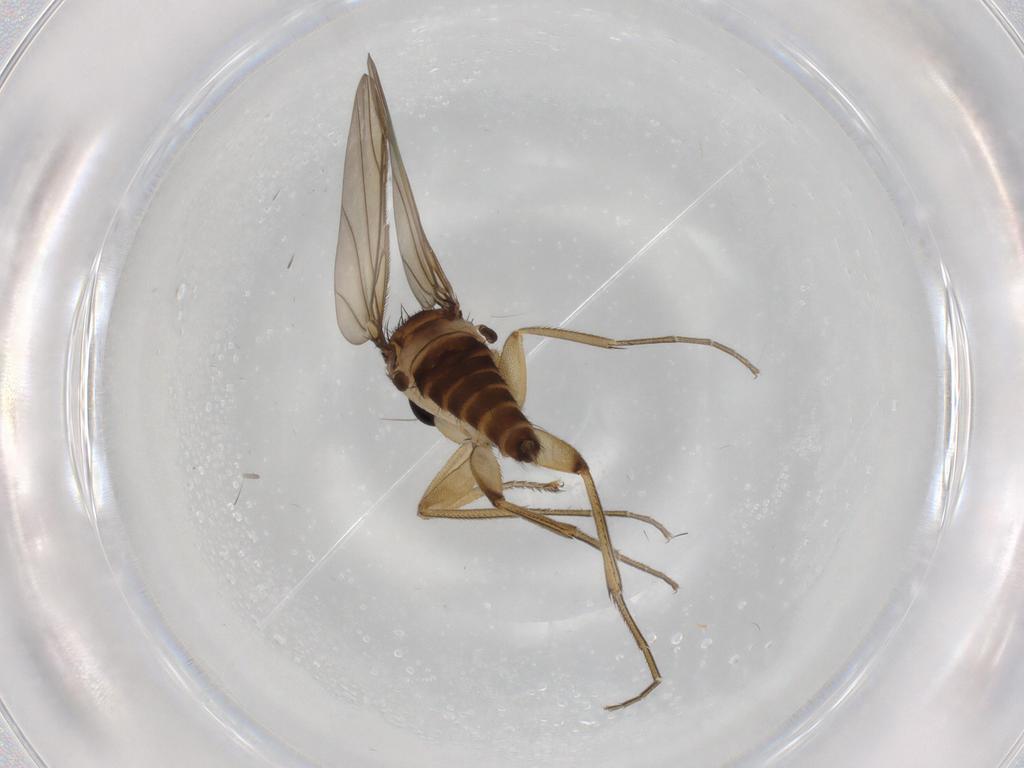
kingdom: Animalia
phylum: Arthropoda
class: Insecta
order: Diptera
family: Phoridae
